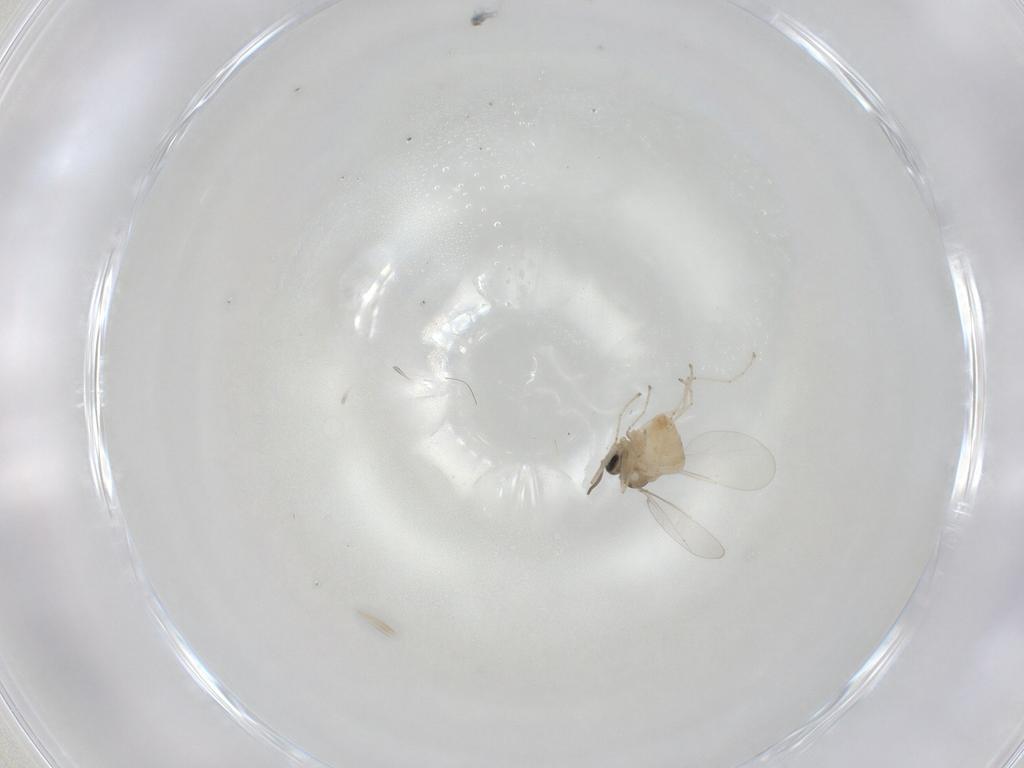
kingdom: Animalia
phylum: Arthropoda
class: Insecta
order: Diptera
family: Cecidomyiidae
